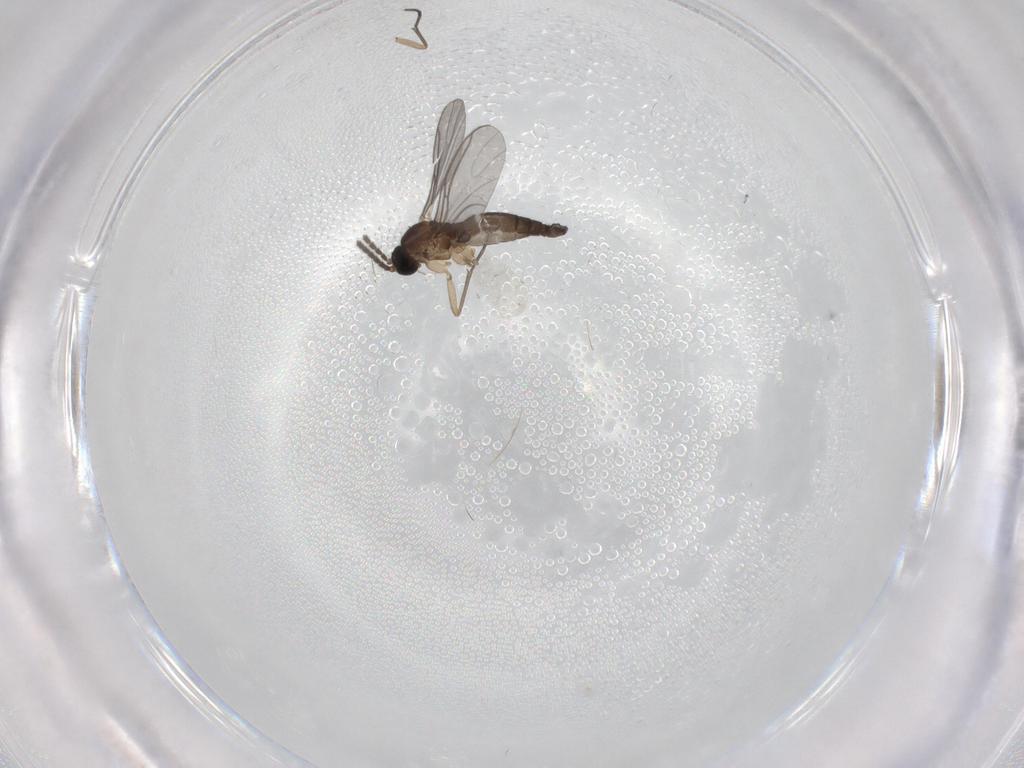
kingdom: Animalia
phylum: Arthropoda
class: Insecta
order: Diptera
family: Sciaridae
